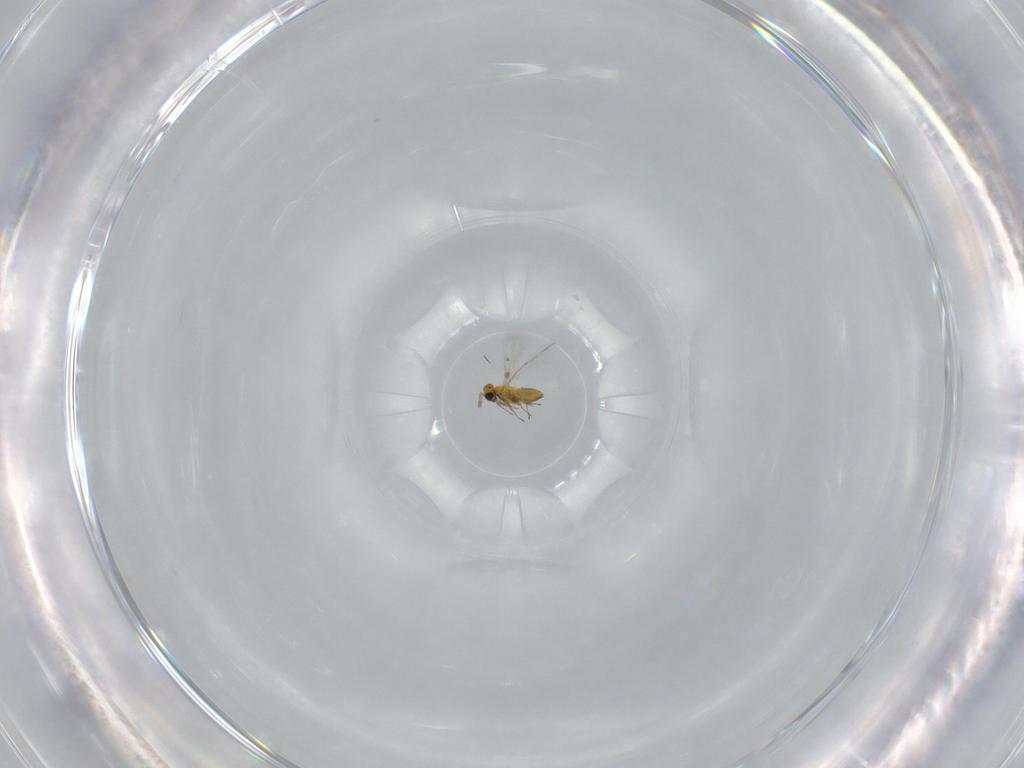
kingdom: Animalia
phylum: Arthropoda
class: Insecta
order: Hymenoptera
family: Trichogrammatidae
